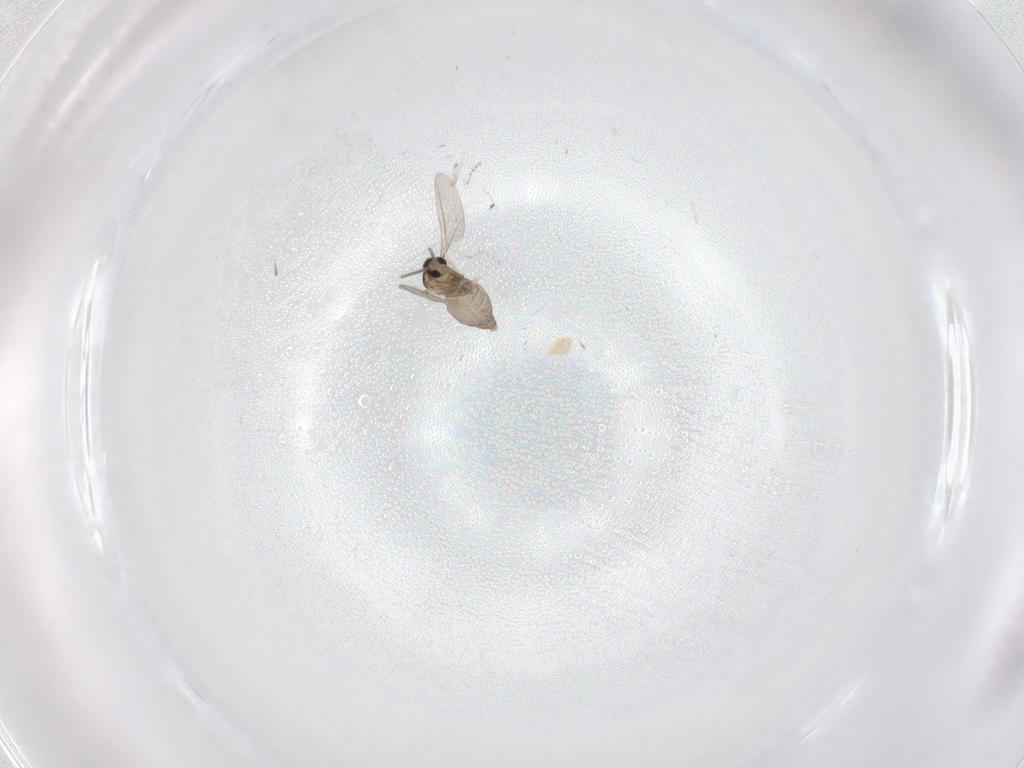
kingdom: Animalia
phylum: Arthropoda
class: Insecta
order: Diptera
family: Cecidomyiidae
